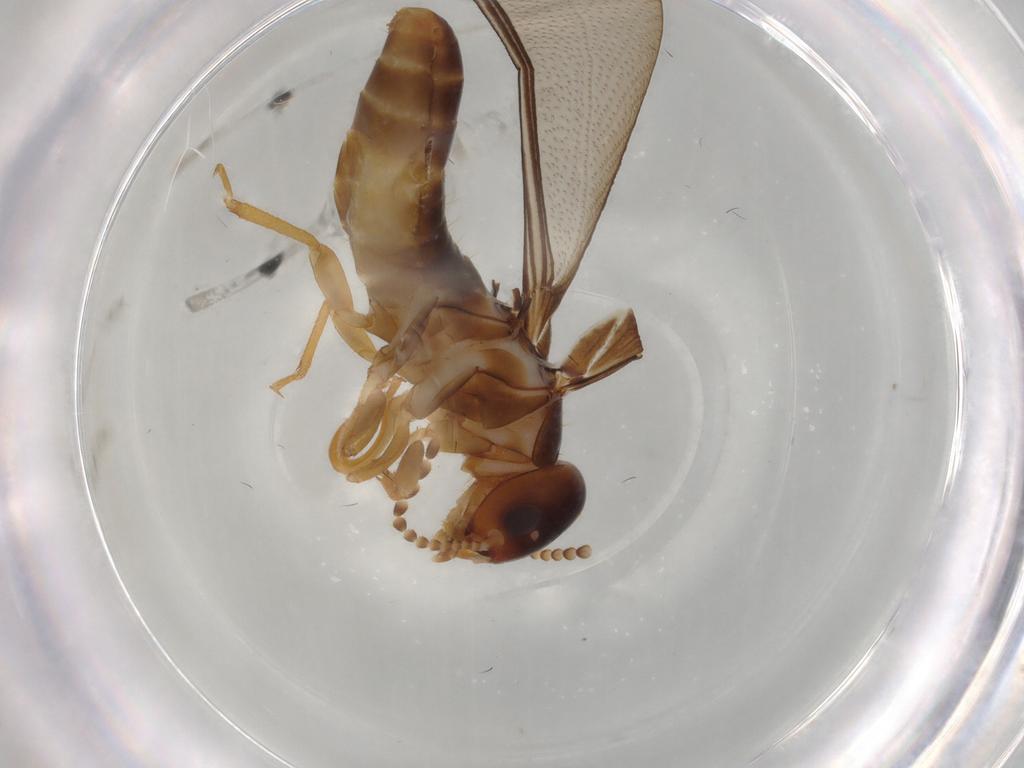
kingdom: Animalia
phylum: Arthropoda
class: Insecta
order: Blattodea
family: Kalotermitidae
